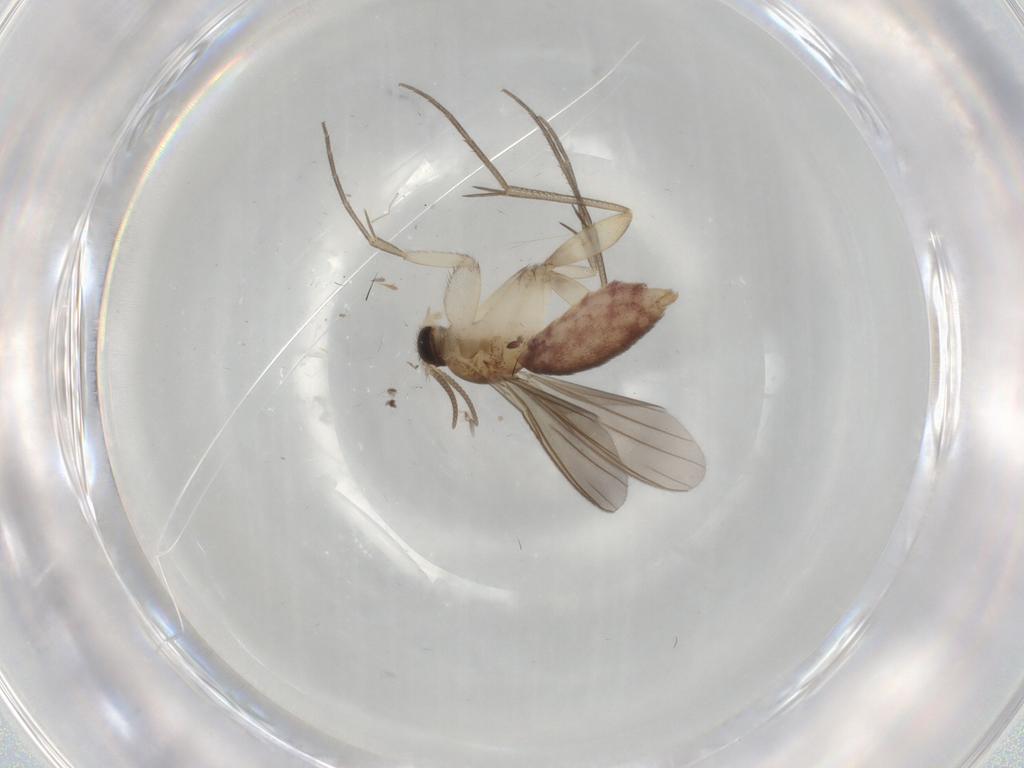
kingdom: Animalia
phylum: Arthropoda
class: Insecta
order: Diptera
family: Mycetophilidae
